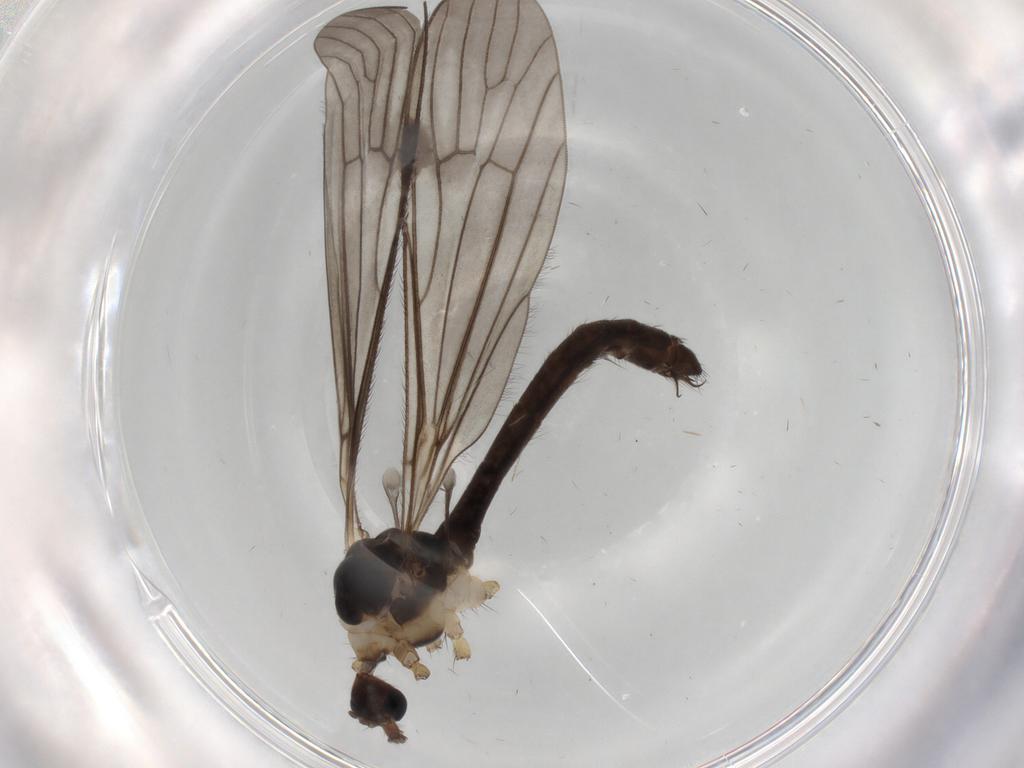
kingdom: Animalia
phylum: Arthropoda
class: Insecta
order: Diptera
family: Limoniidae
